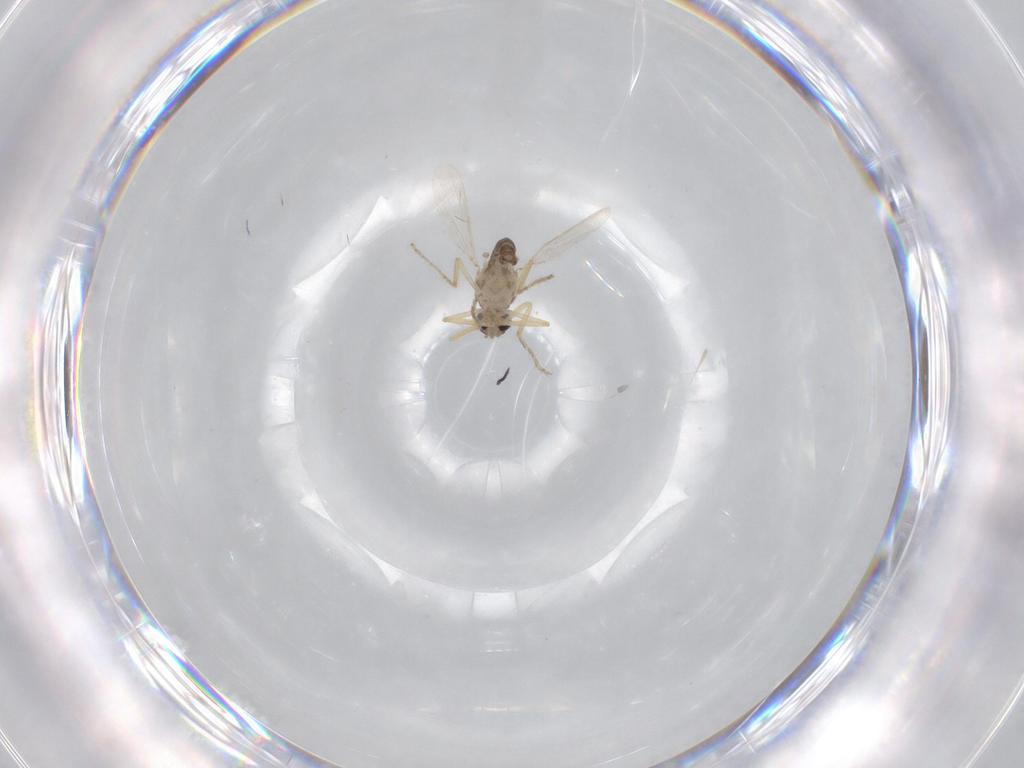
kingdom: Animalia
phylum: Arthropoda
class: Insecta
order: Diptera
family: Ceratopogonidae
